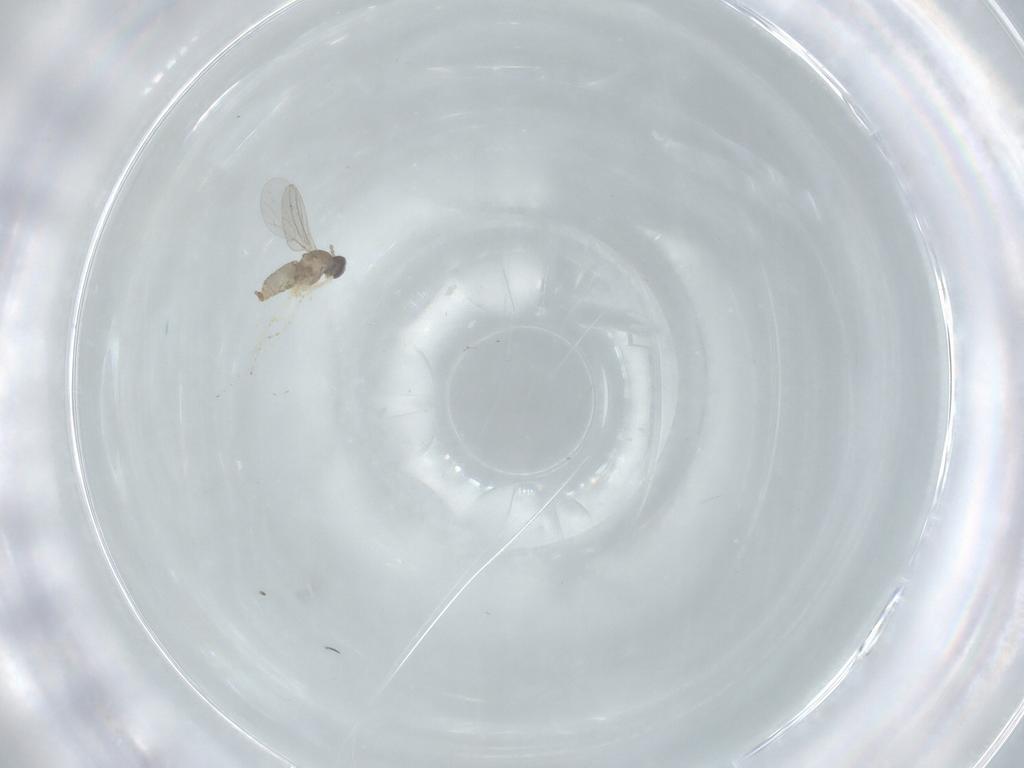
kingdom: Animalia
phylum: Arthropoda
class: Insecta
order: Diptera
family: Cecidomyiidae
